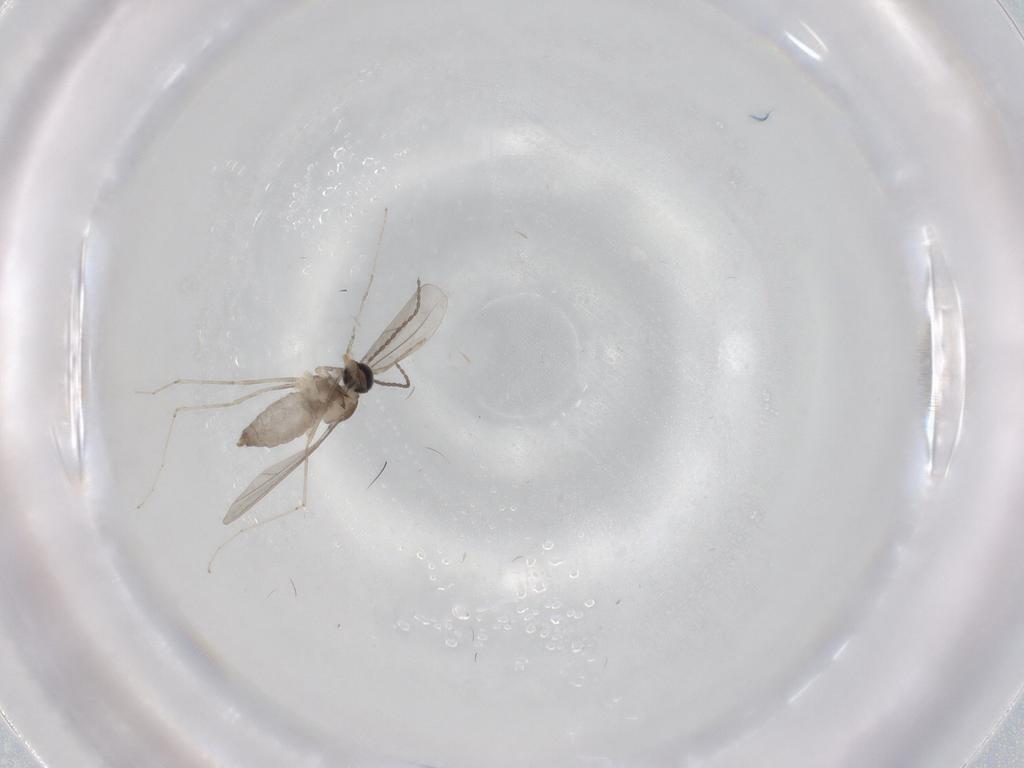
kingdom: Animalia
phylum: Arthropoda
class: Insecta
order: Diptera
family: Cecidomyiidae
